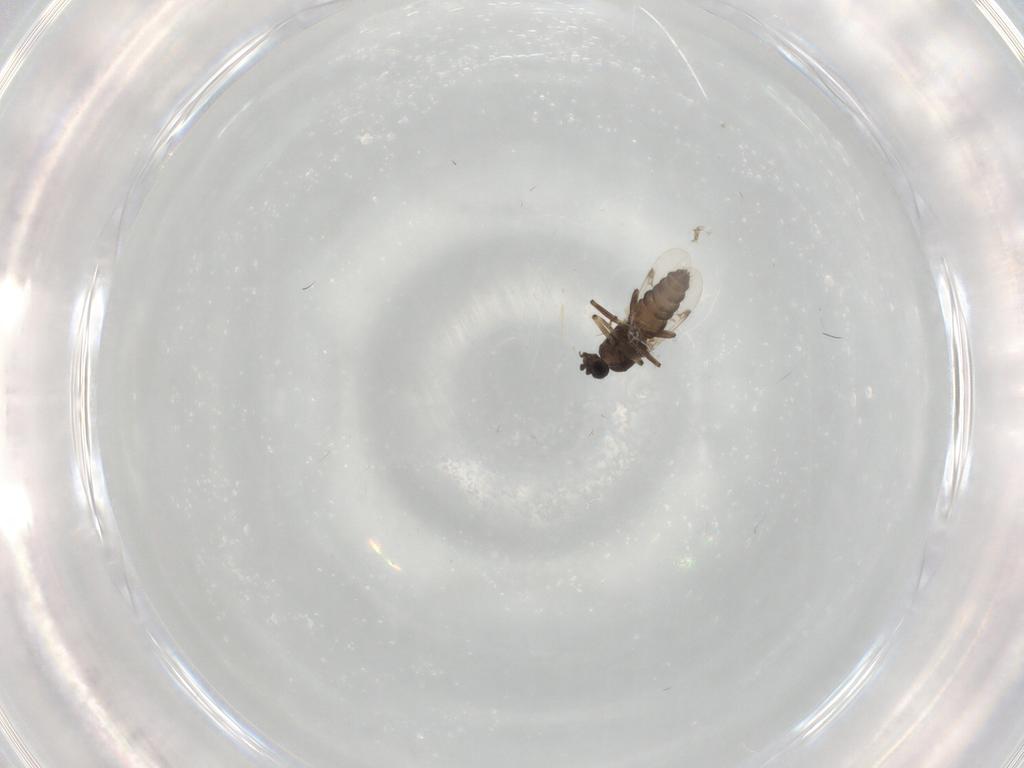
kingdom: Animalia
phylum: Arthropoda
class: Insecta
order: Diptera
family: Ceratopogonidae
